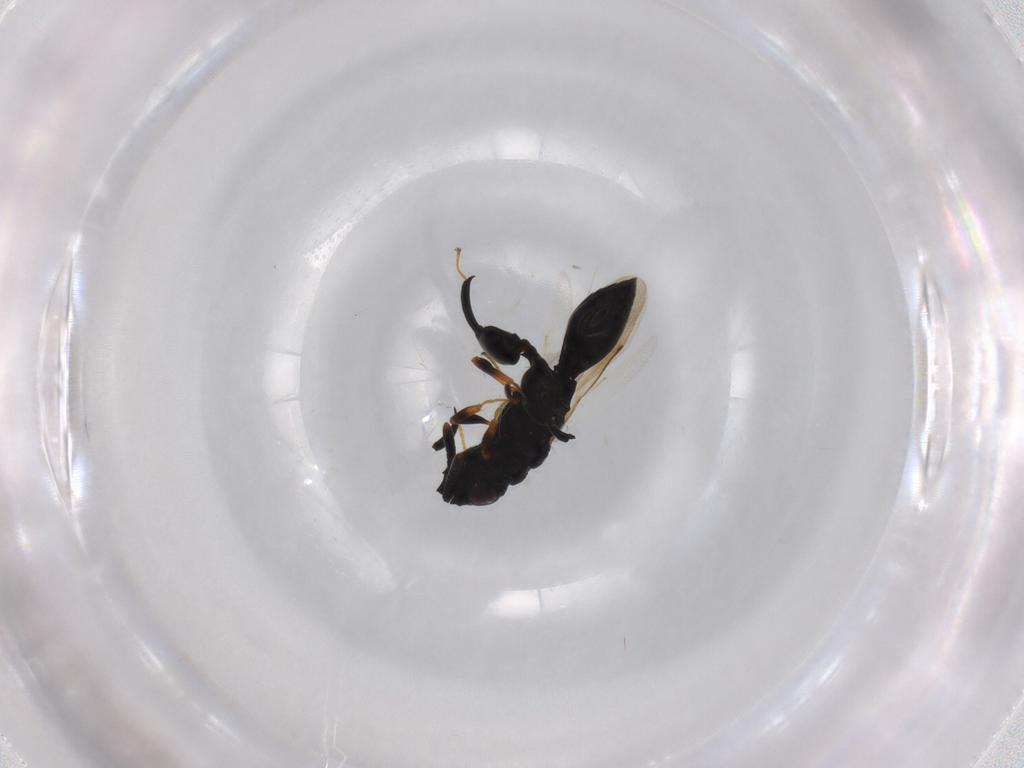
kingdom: Animalia
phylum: Arthropoda
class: Insecta
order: Hymenoptera
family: Chalcididae
